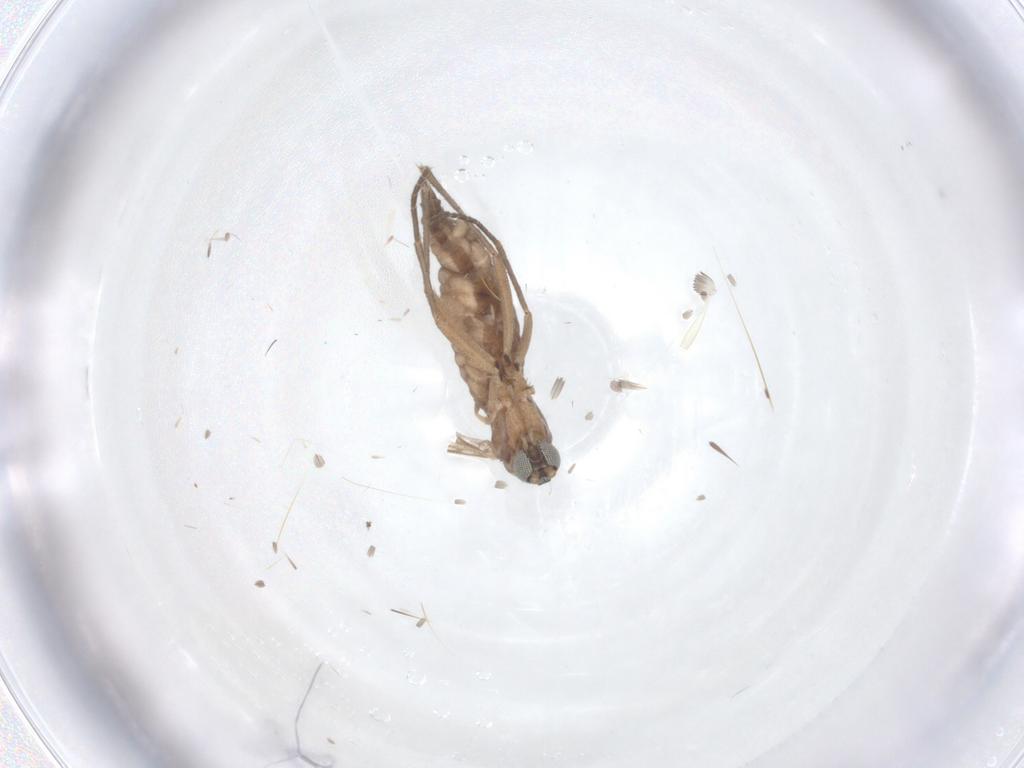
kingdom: Animalia
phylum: Arthropoda
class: Insecta
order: Diptera
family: Sciaridae
